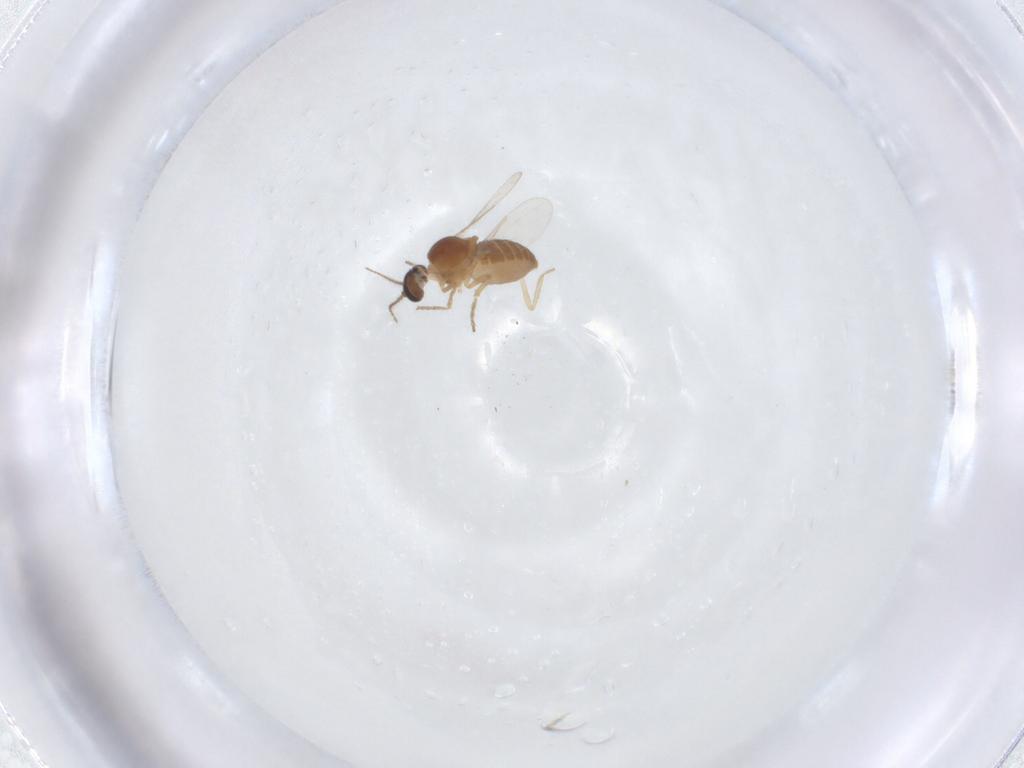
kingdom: Animalia
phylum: Arthropoda
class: Insecta
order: Diptera
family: Ceratopogonidae
